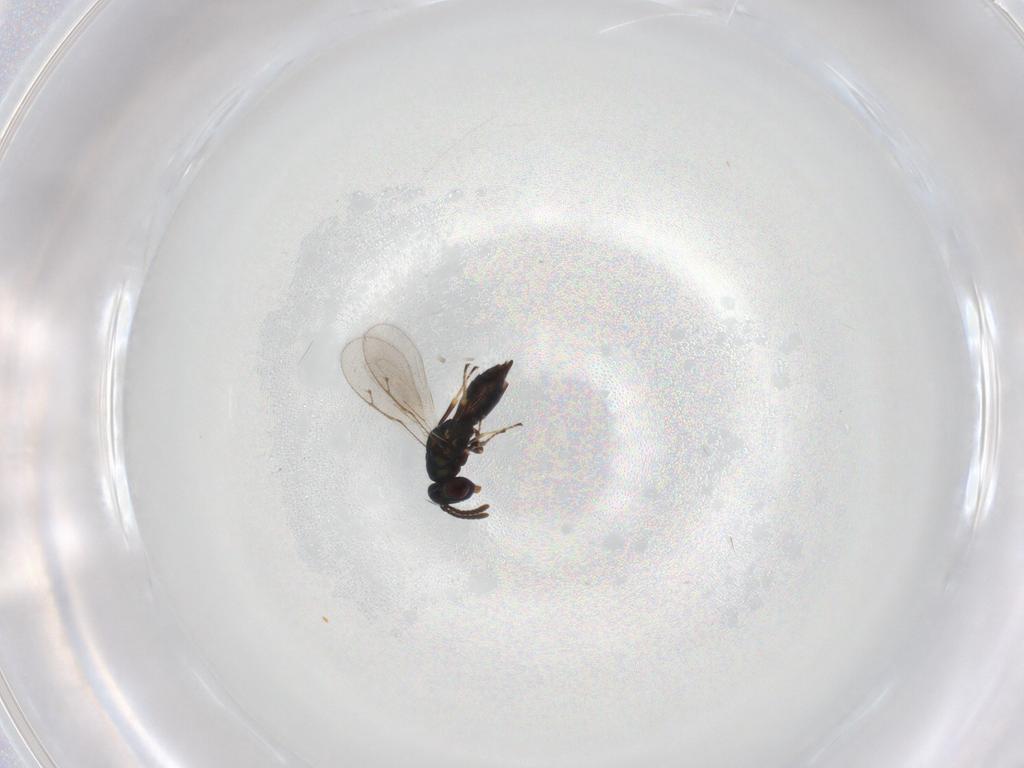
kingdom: Animalia
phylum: Arthropoda
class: Insecta
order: Hymenoptera
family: Pteromalidae
